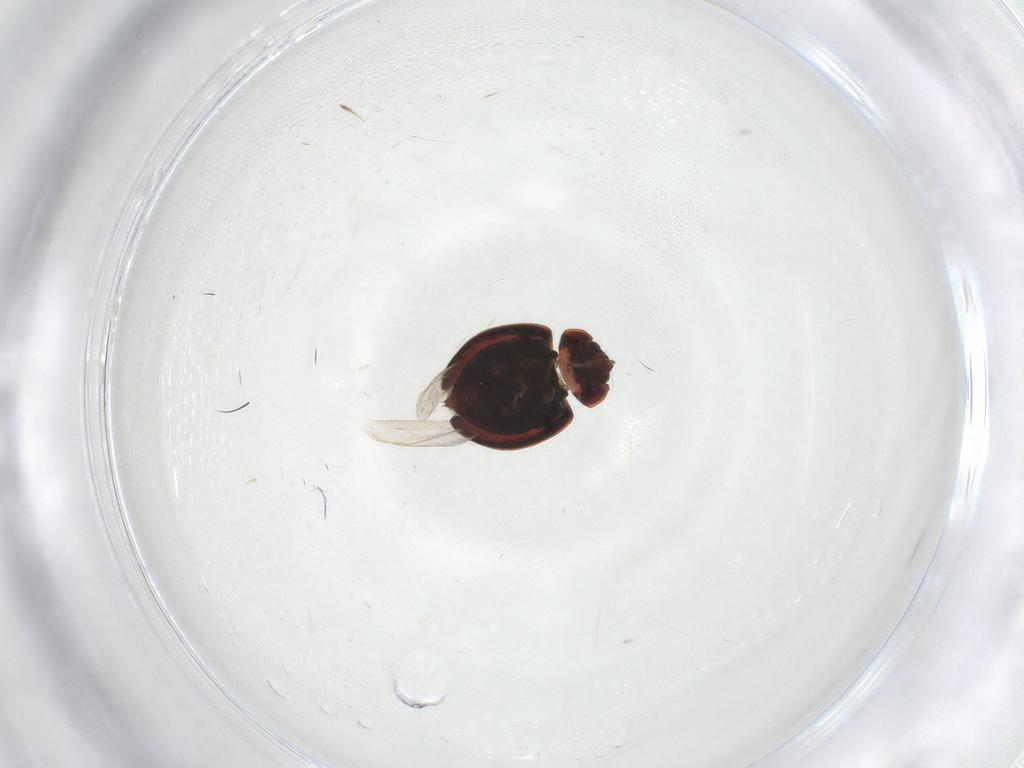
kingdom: Animalia
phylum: Arthropoda
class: Insecta
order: Coleoptera
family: Coccinellidae
